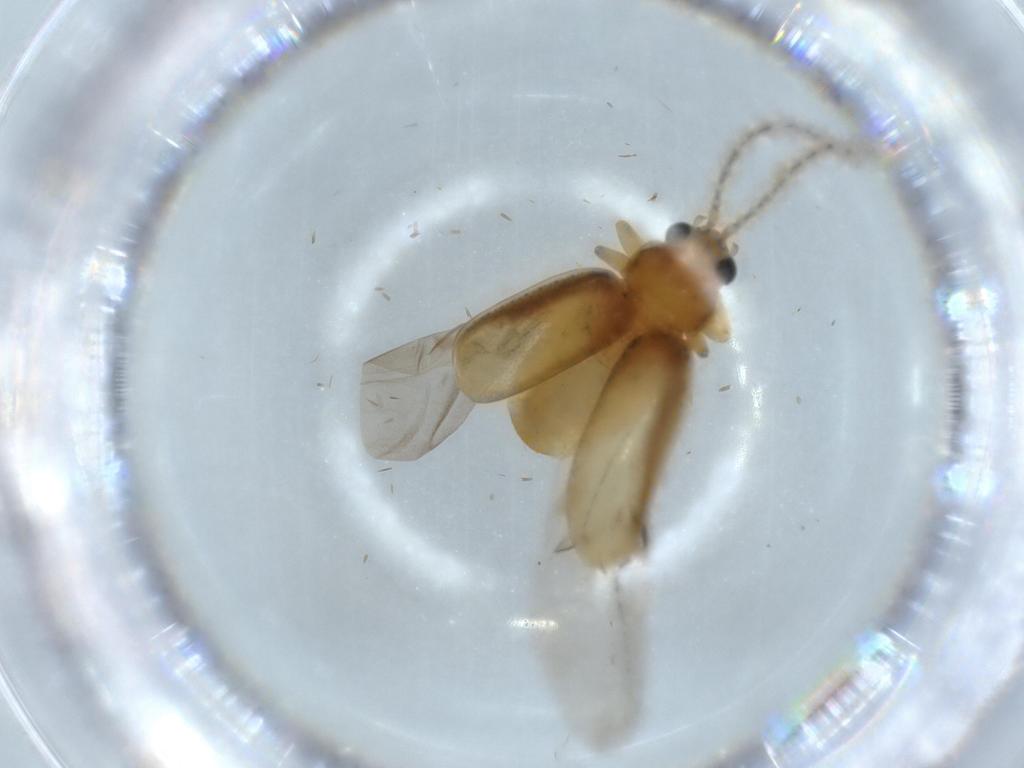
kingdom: Animalia
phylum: Arthropoda
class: Insecta
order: Coleoptera
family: Chrysomelidae
